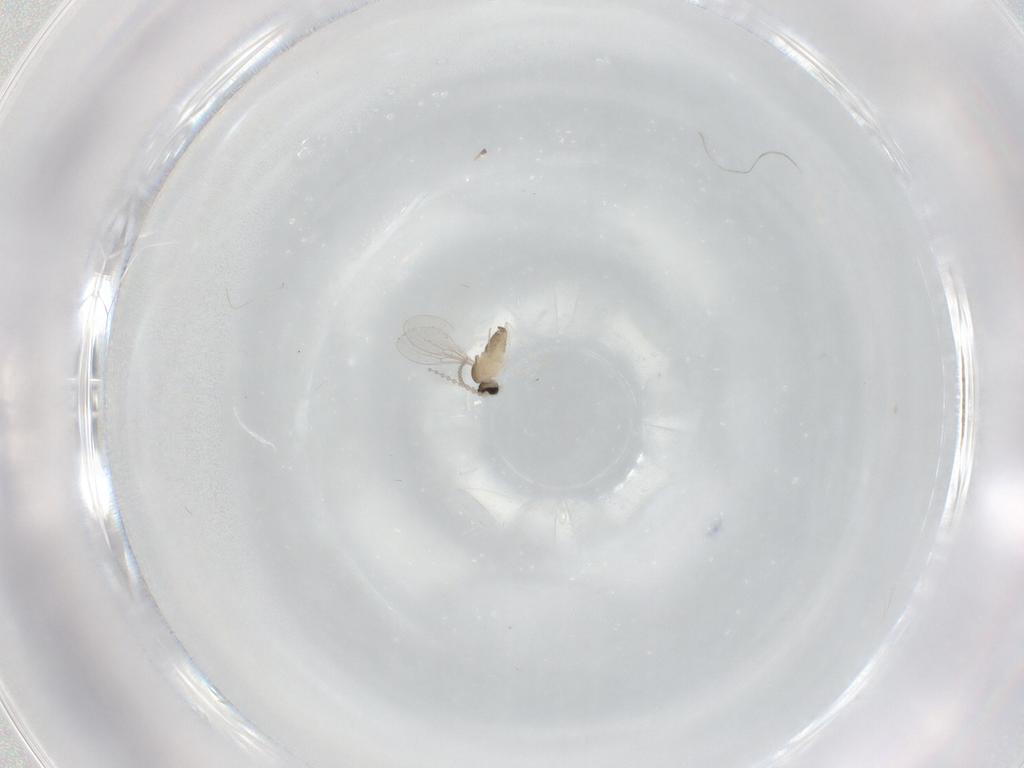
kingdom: Animalia
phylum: Arthropoda
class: Insecta
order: Diptera
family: Cecidomyiidae
